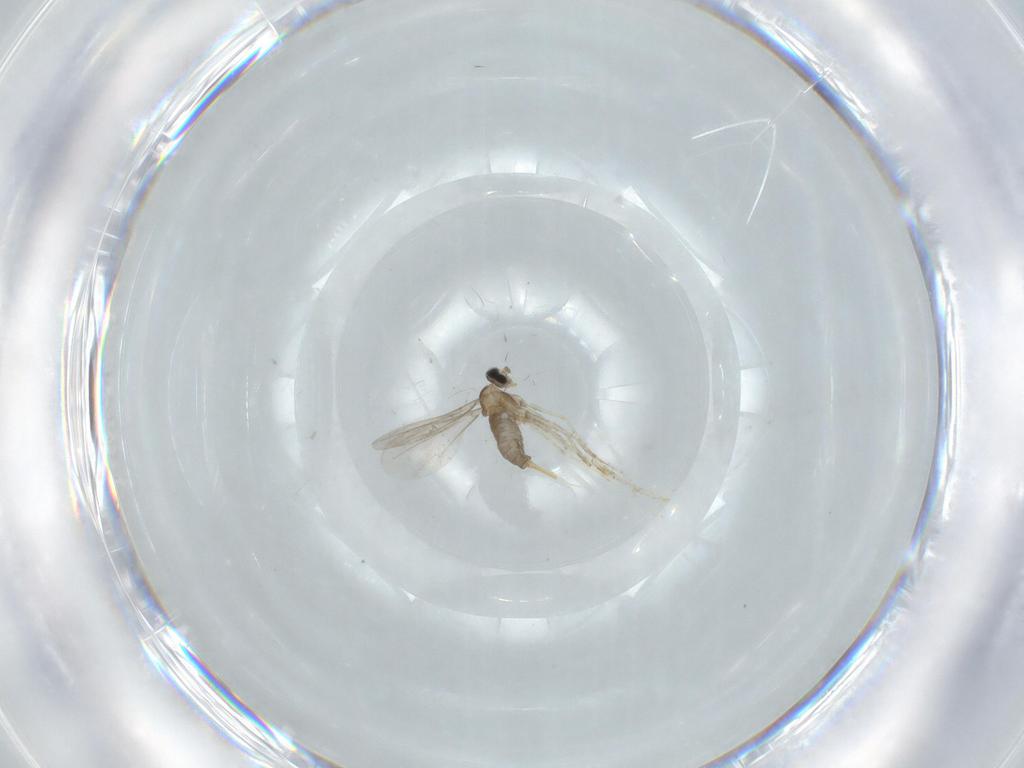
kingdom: Animalia
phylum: Arthropoda
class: Insecta
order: Diptera
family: Cecidomyiidae
